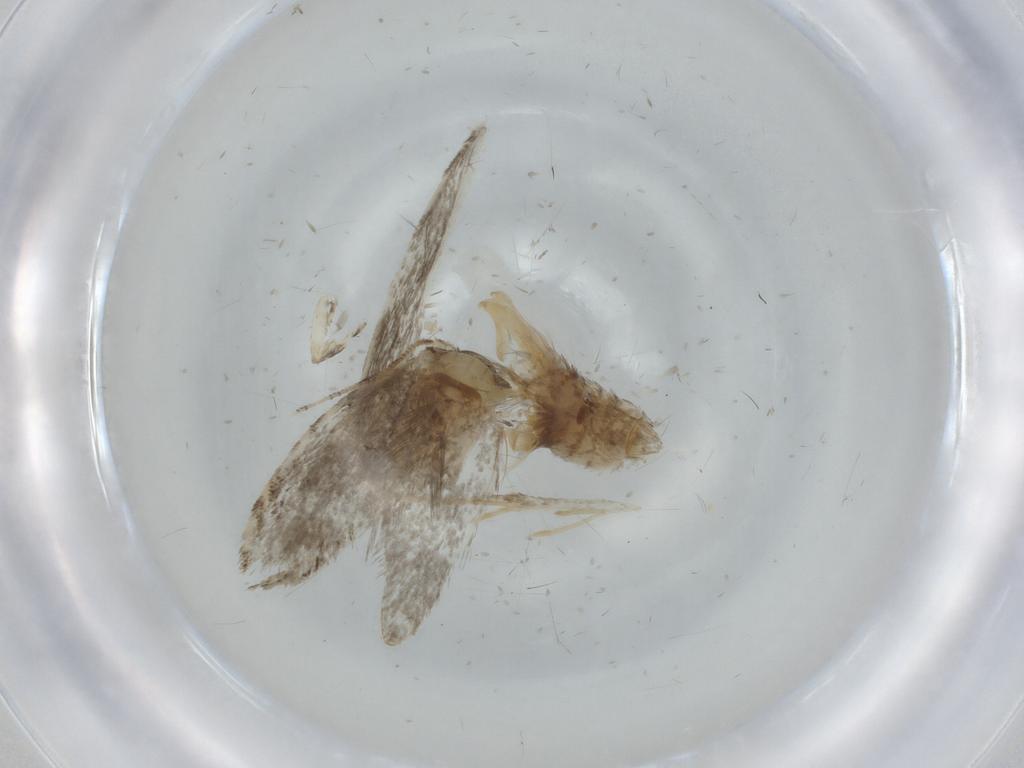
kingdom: Animalia
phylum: Arthropoda
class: Insecta
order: Lepidoptera
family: Tineidae
